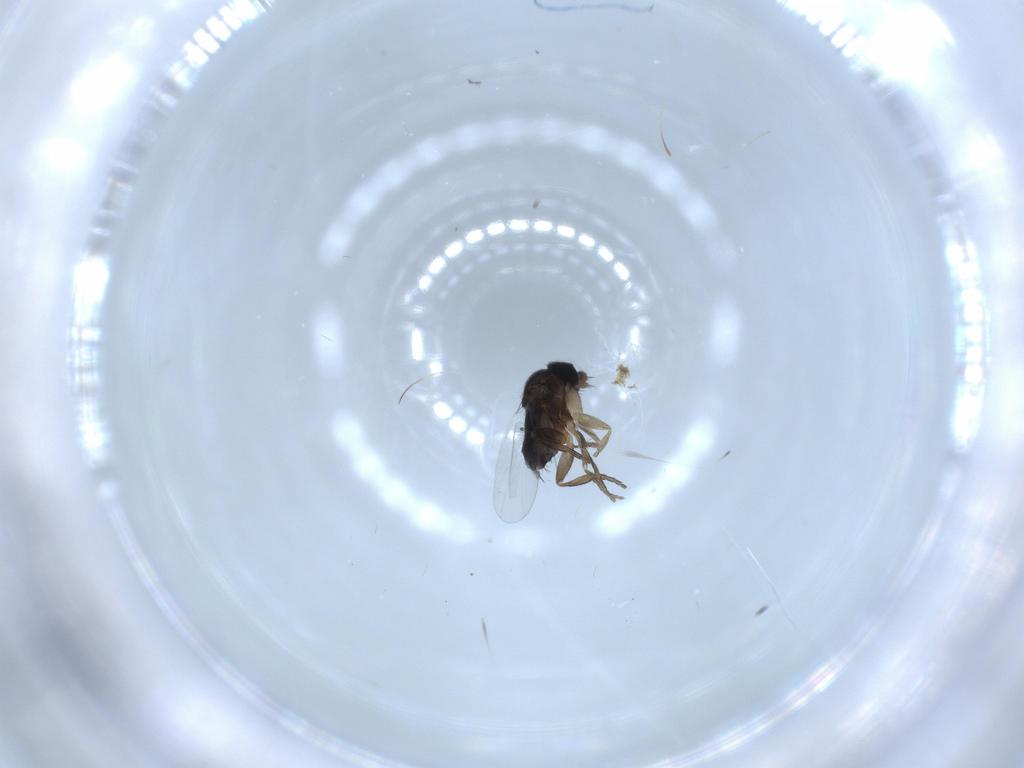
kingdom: Animalia
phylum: Arthropoda
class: Insecta
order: Diptera
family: Phoridae
